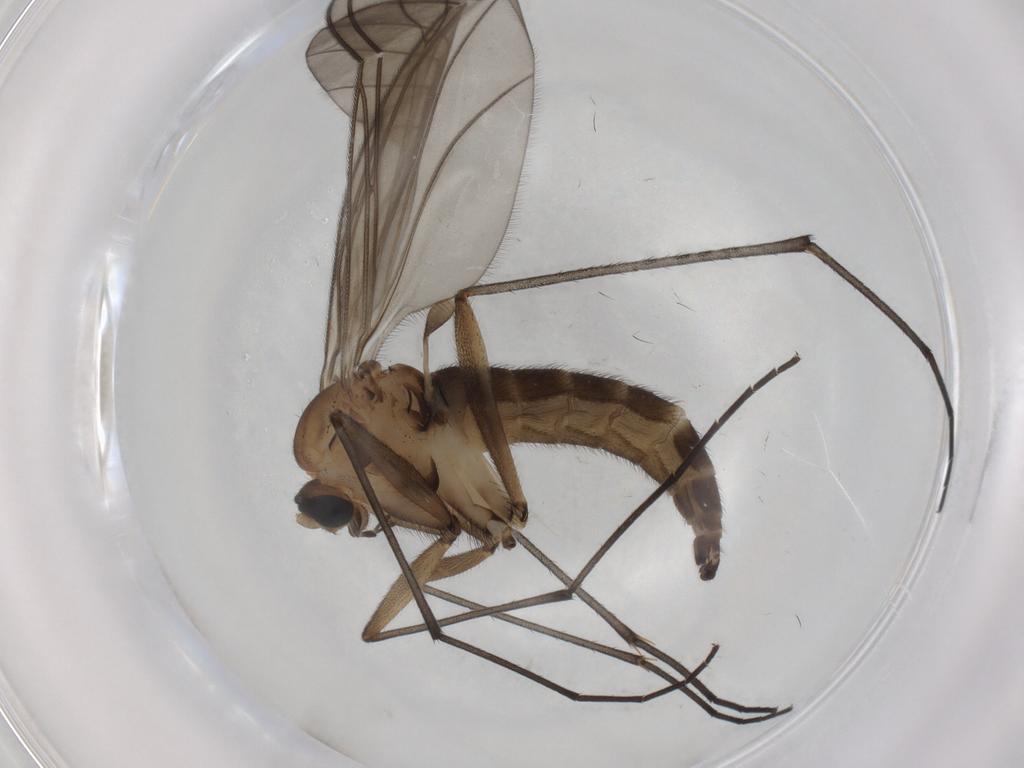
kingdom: Animalia
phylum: Arthropoda
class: Insecta
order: Diptera
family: Sciaridae
